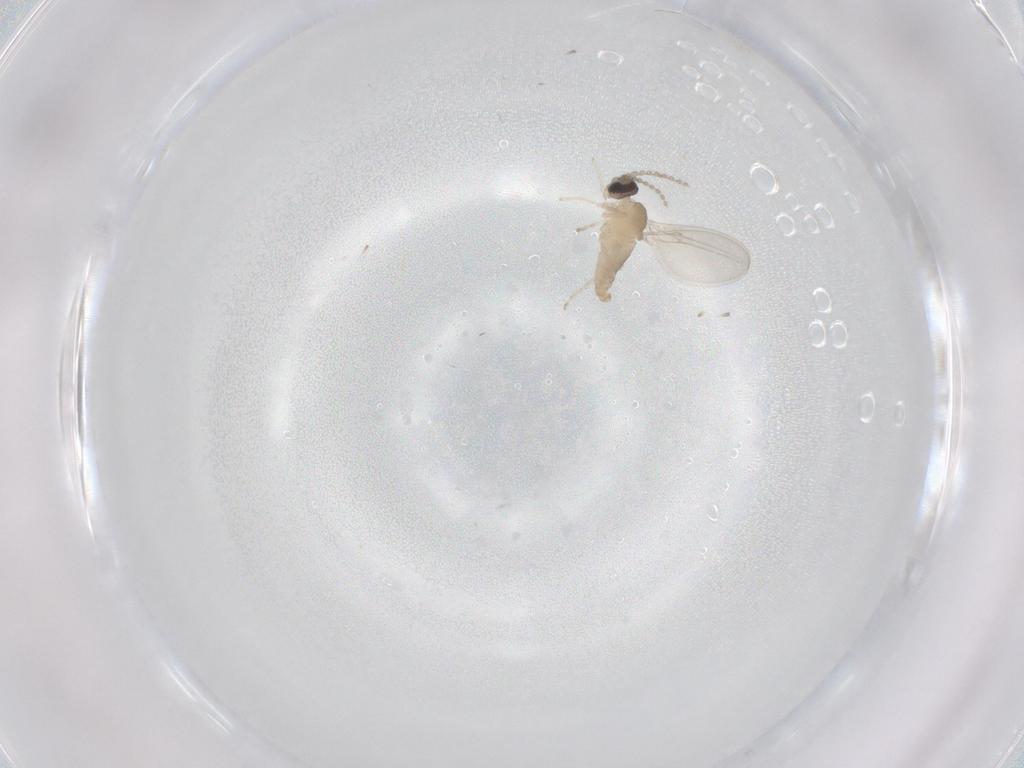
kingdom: Animalia
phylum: Arthropoda
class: Insecta
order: Diptera
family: Cecidomyiidae
